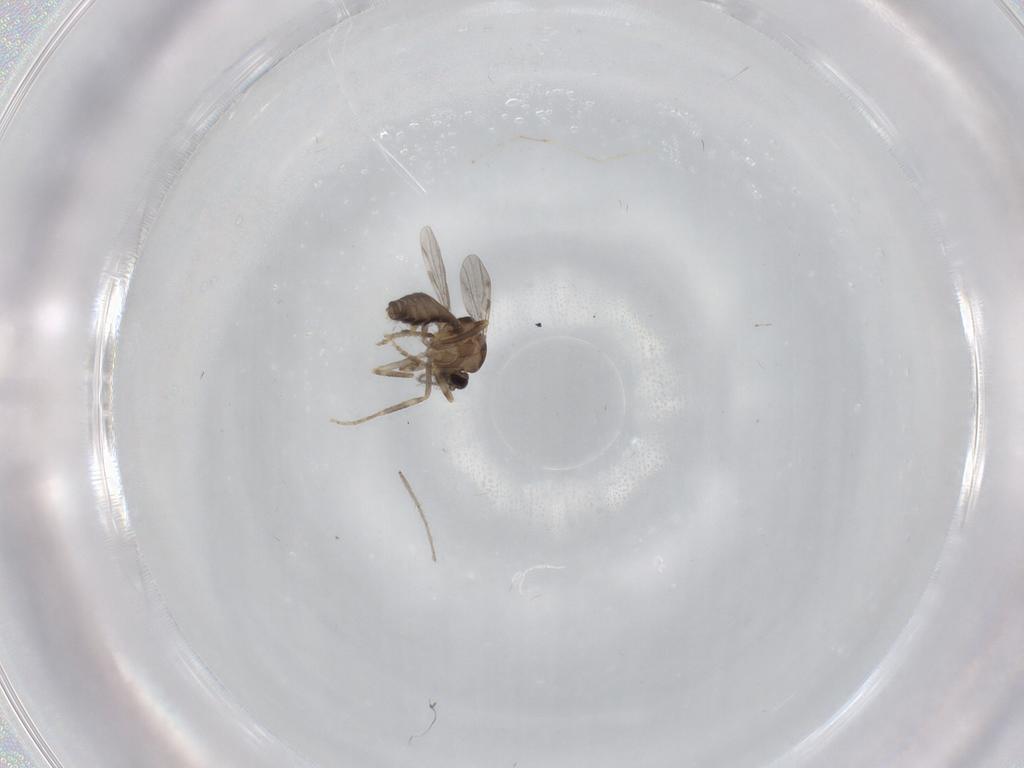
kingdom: Animalia
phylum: Arthropoda
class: Insecta
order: Diptera
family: Ceratopogonidae
